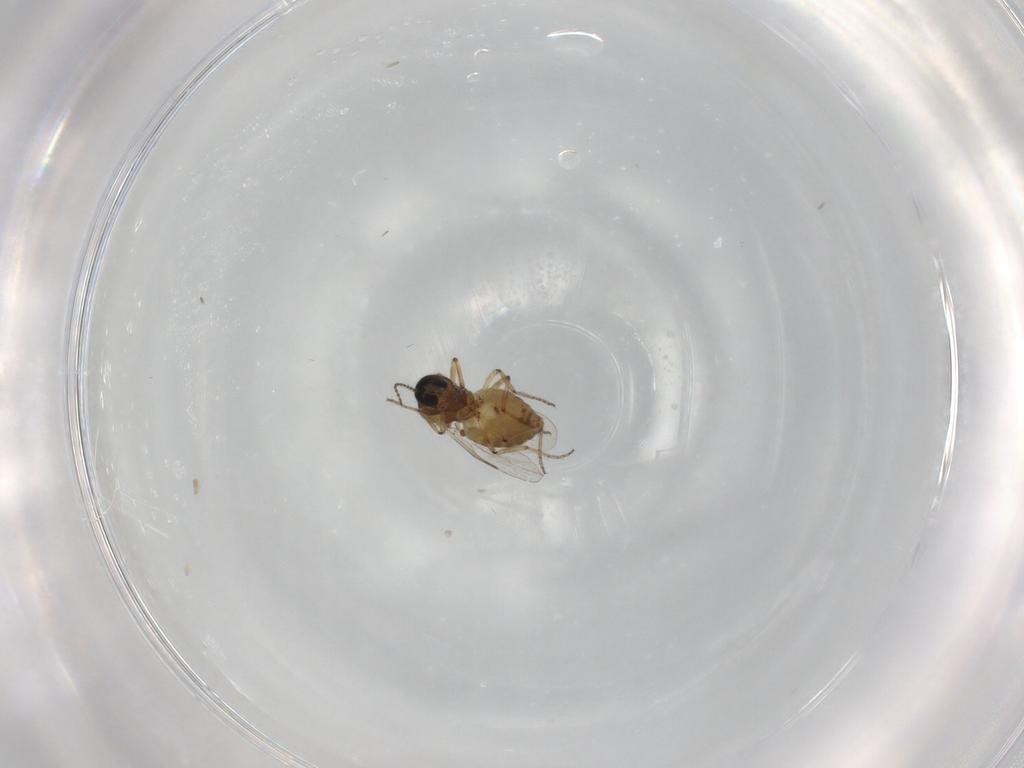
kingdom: Animalia
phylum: Arthropoda
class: Insecta
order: Diptera
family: Ceratopogonidae
